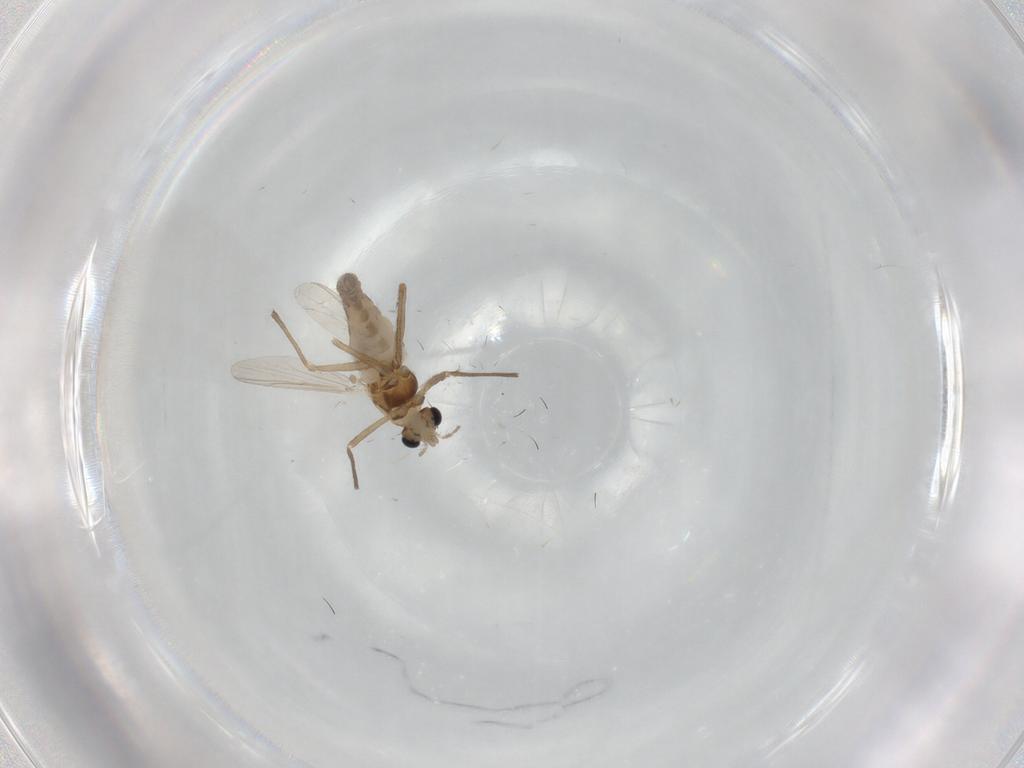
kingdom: Animalia
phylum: Arthropoda
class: Insecta
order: Diptera
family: Chironomidae
